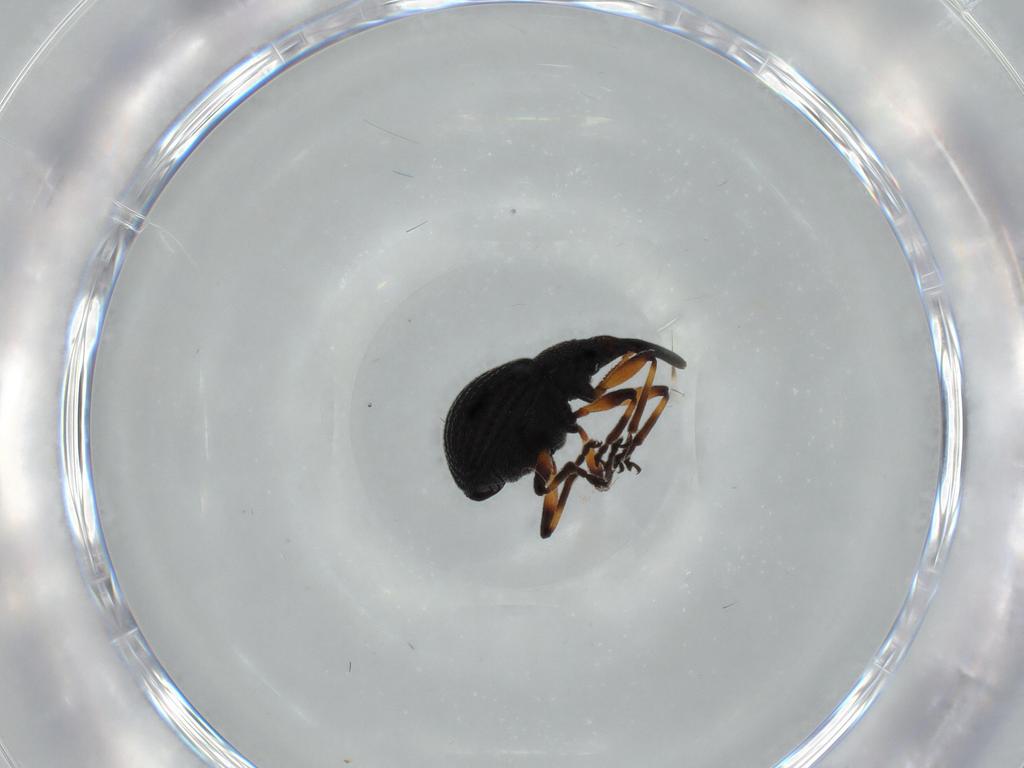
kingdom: Animalia
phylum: Arthropoda
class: Insecta
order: Coleoptera
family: Brentidae
